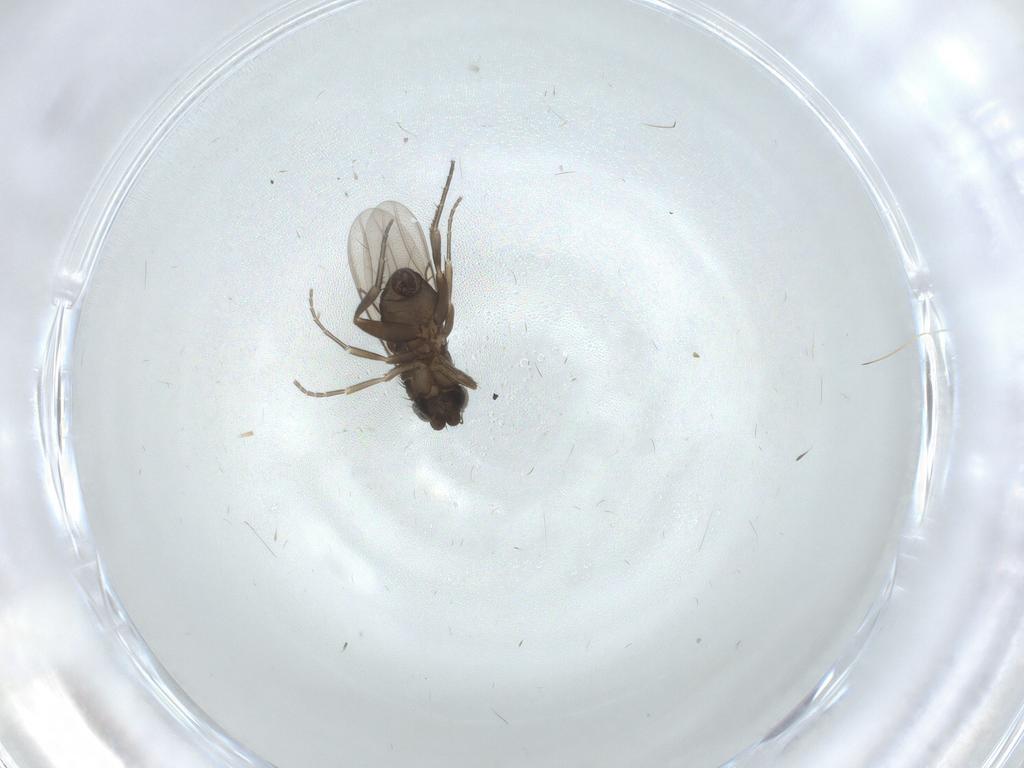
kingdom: Animalia
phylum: Arthropoda
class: Insecta
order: Diptera
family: Phoridae
